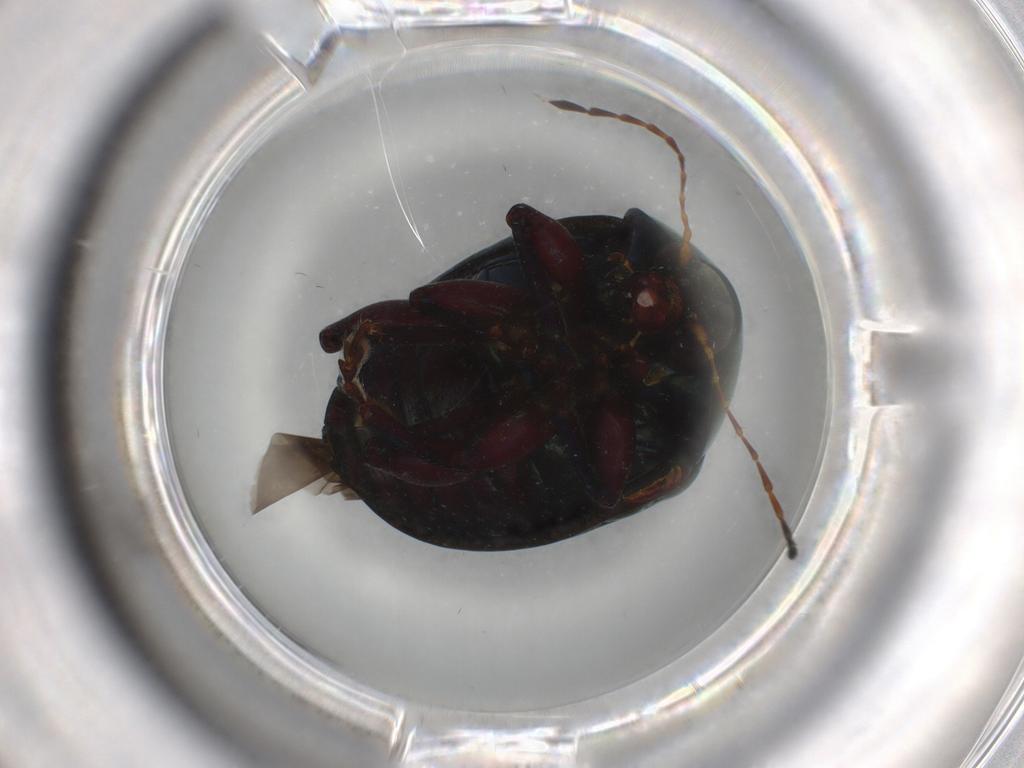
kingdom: Animalia
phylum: Arthropoda
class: Insecta
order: Coleoptera
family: Chrysomelidae
